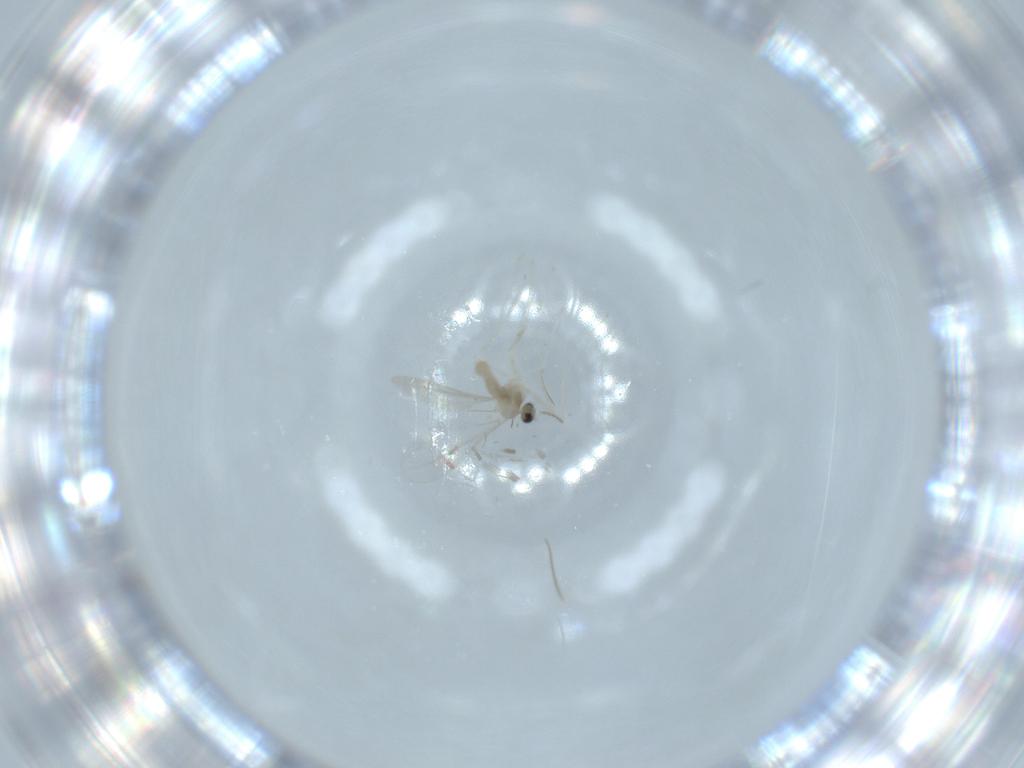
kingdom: Animalia
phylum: Arthropoda
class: Insecta
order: Diptera
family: Cecidomyiidae
